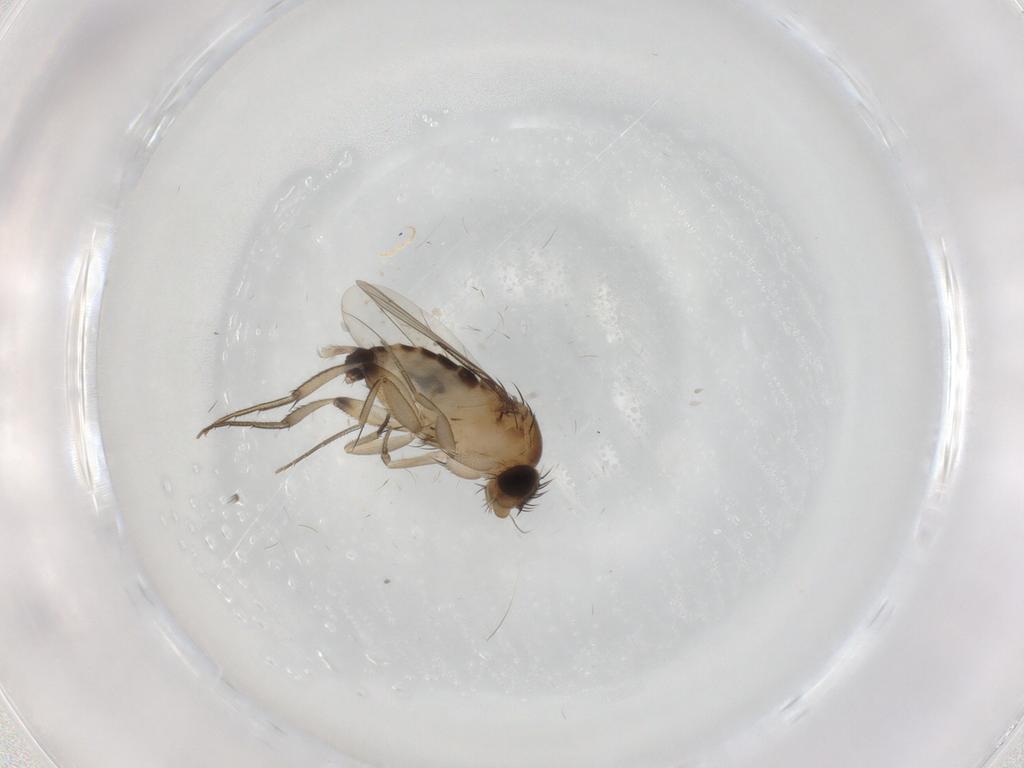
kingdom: Animalia
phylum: Arthropoda
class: Insecta
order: Diptera
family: Phoridae
